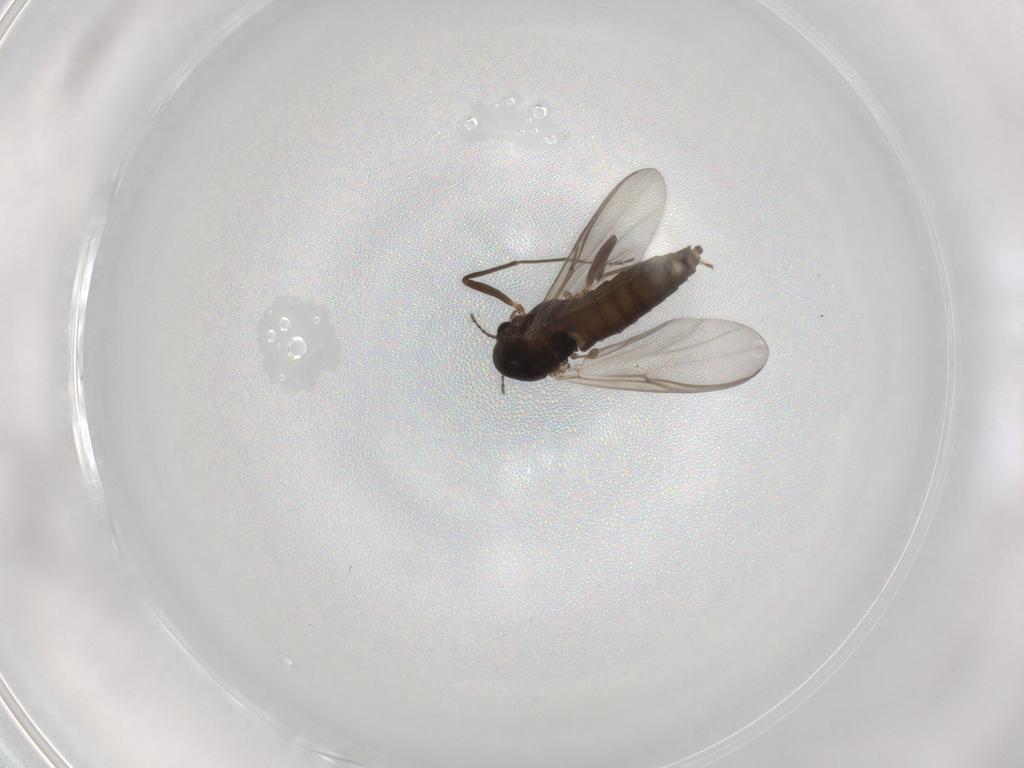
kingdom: Animalia
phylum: Arthropoda
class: Insecta
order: Diptera
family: Chironomidae
